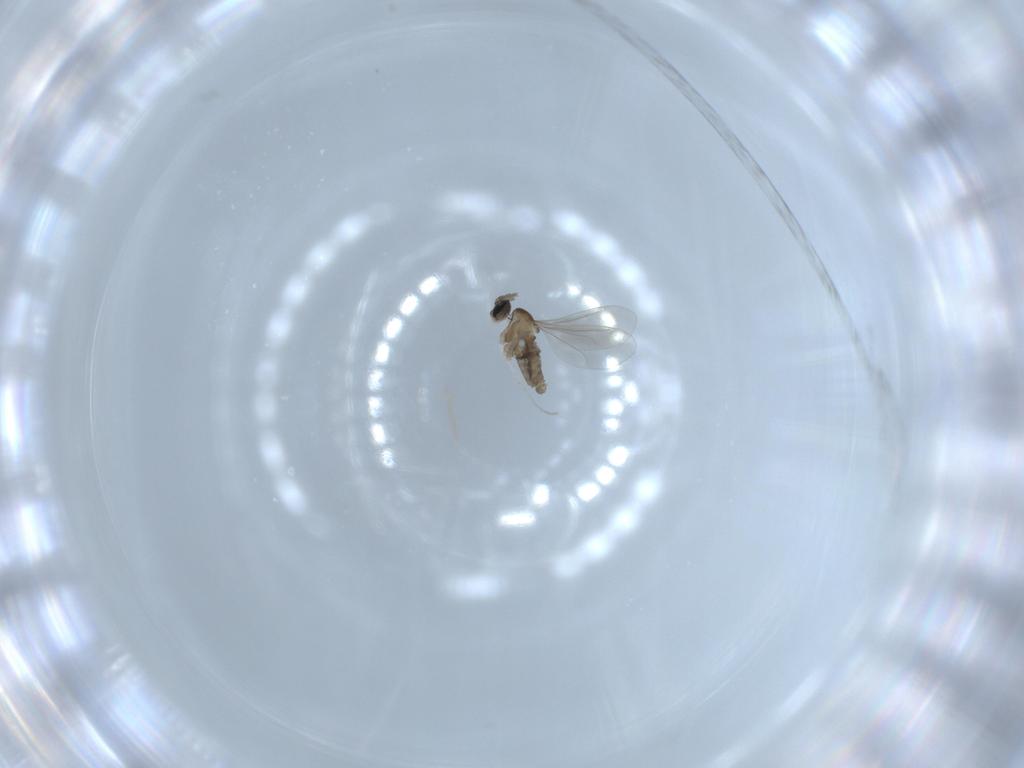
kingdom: Animalia
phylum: Arthropoda
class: Insecta
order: Diptera
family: Cecidomyiidae
